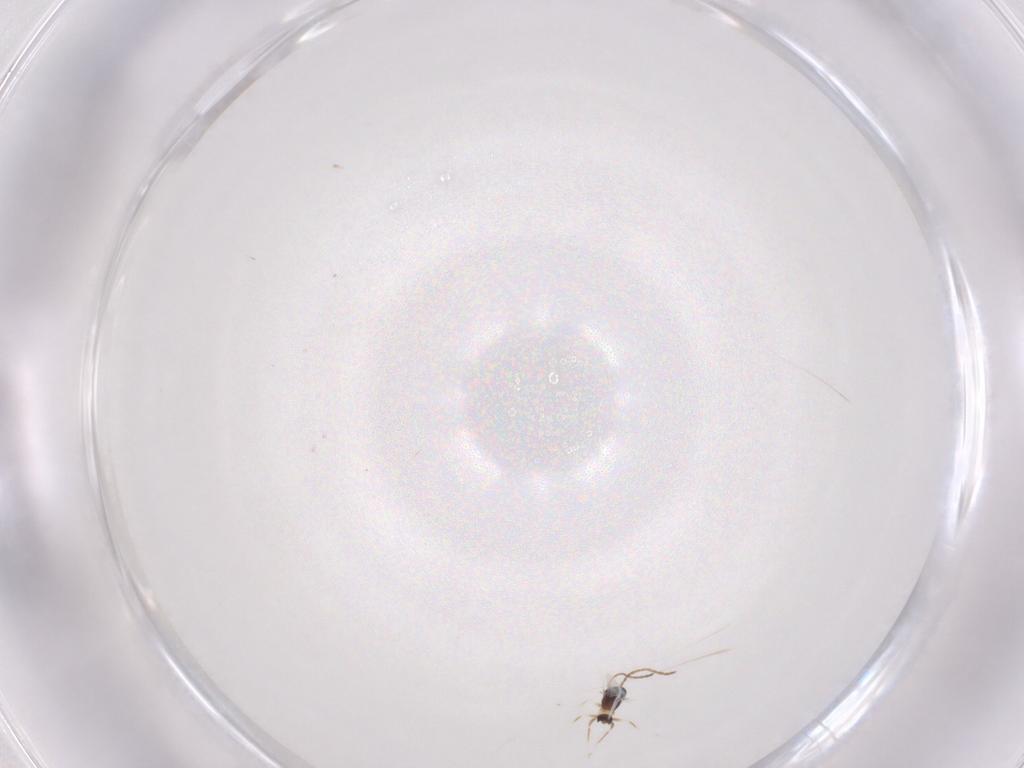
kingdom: Animalia
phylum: Arthropoda
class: Insecta
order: Hymenoptera
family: Mymaridae
